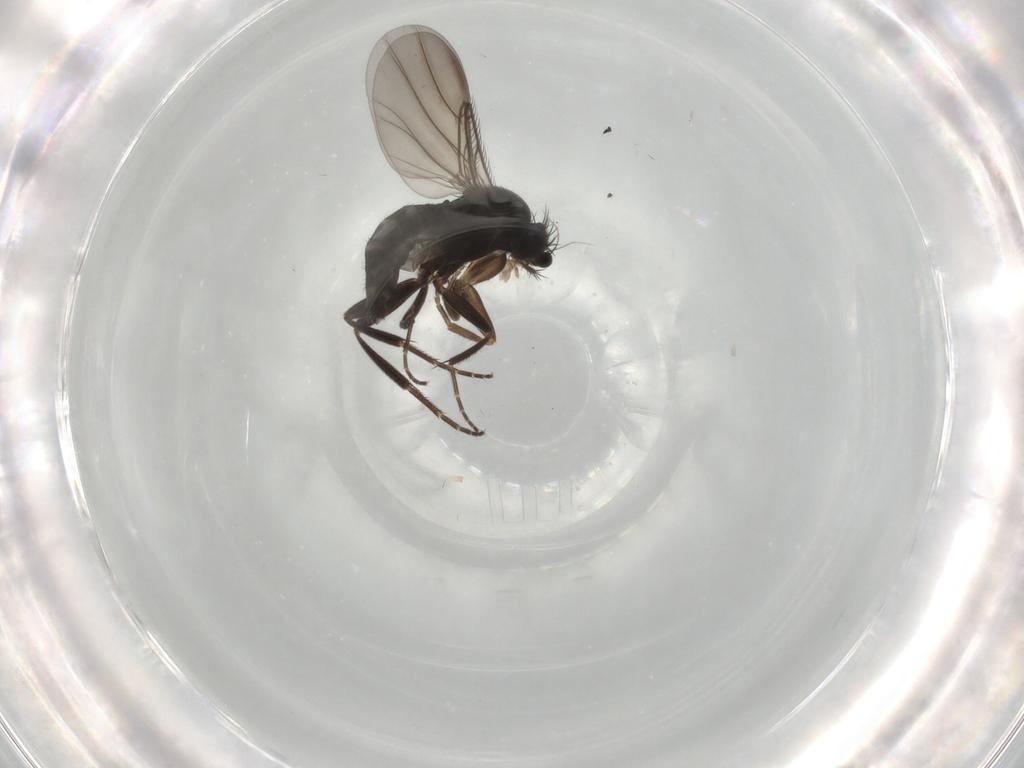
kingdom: Animalia
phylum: Arthropoda
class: Insecta
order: Diptera
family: Phoridae
